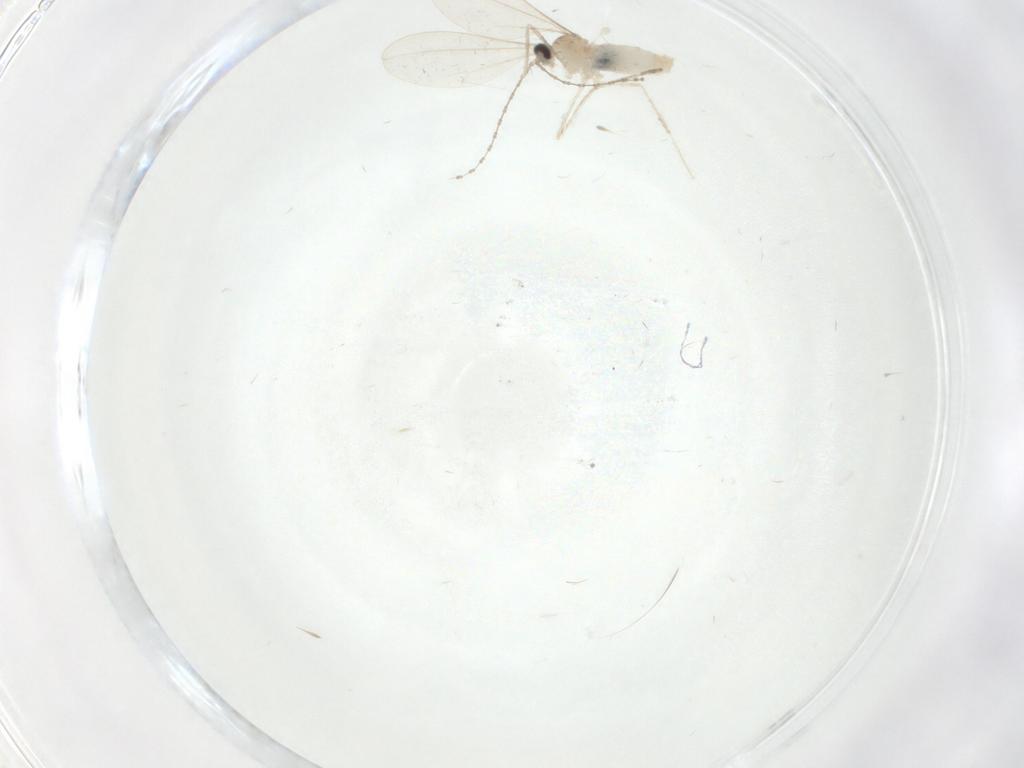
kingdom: Animalia
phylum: Arthropoda
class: Insecta
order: Diptera
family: Cecidomyiidae
